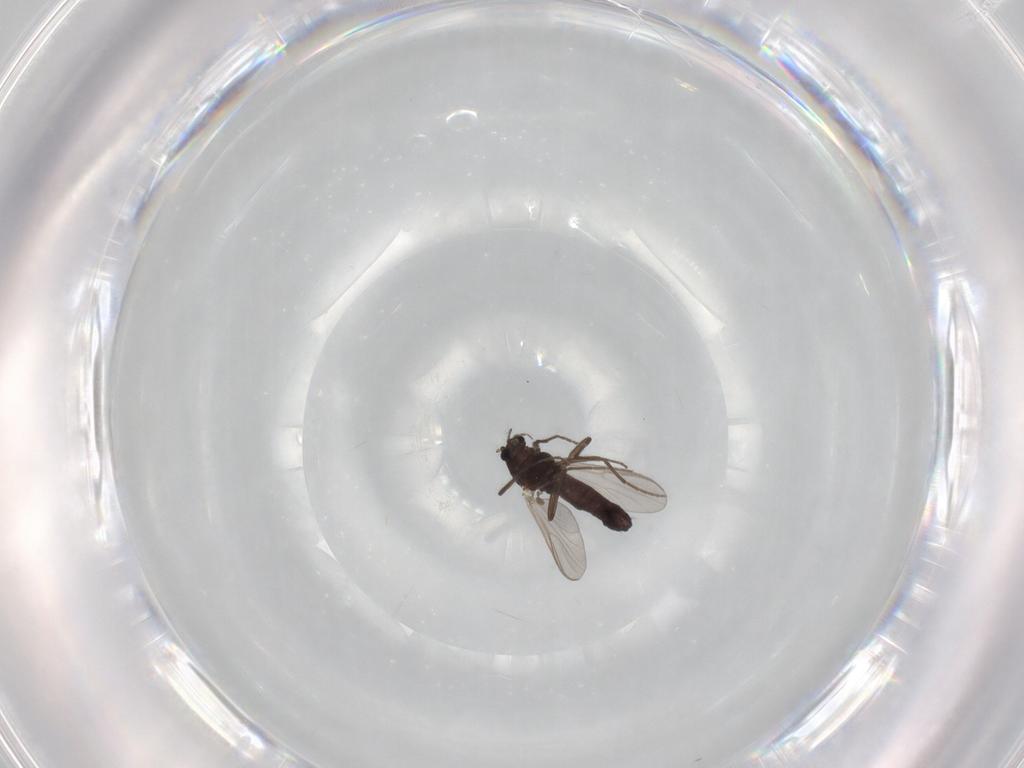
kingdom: Animalia
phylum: Arthropoda
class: Insecta
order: Diptera
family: Chironomidae
